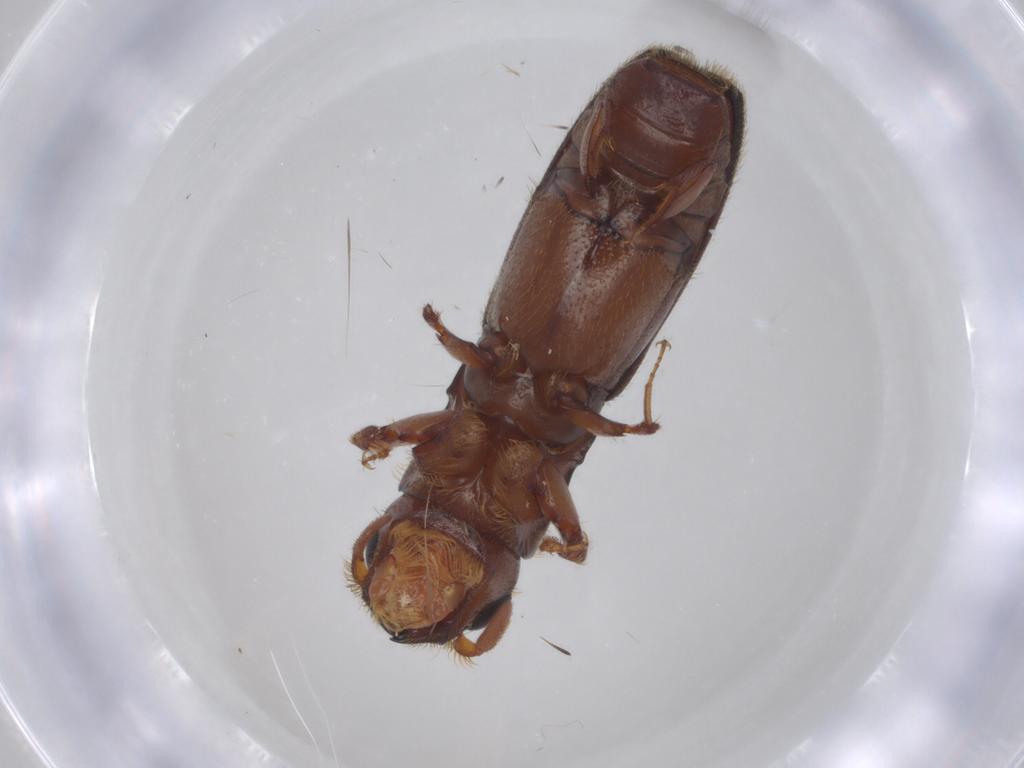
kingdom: Animalia
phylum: Arthropoda
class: Insecta
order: Coleoptera
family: Curculionidae
